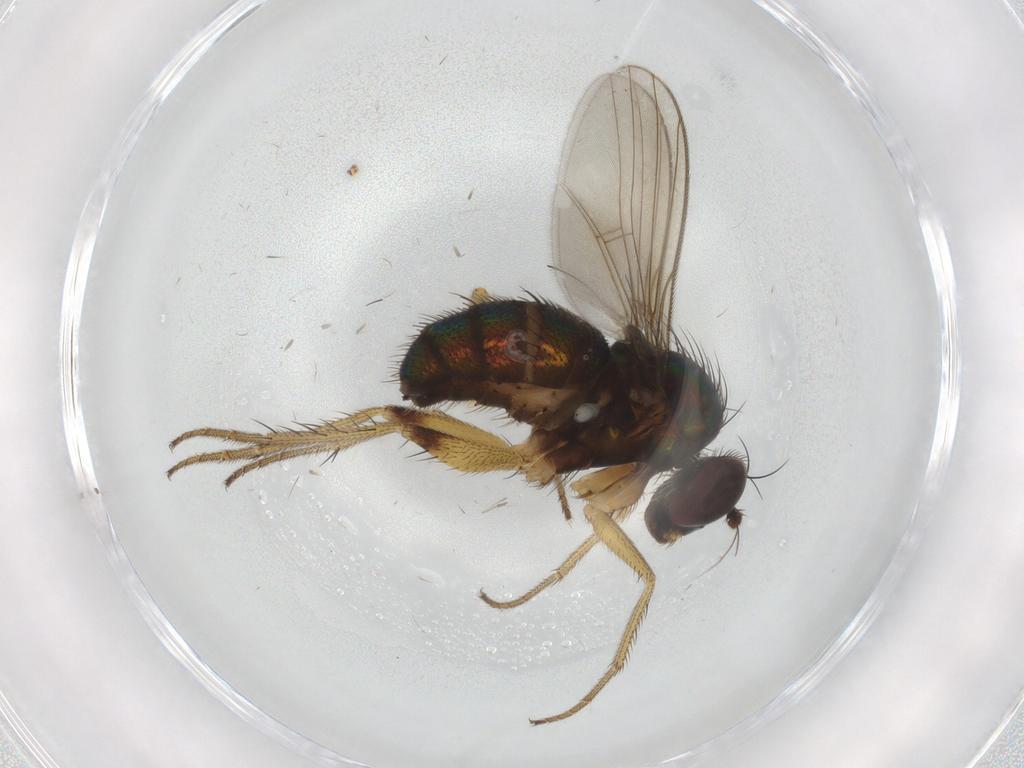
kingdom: Animalia
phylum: Arthropoda
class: Insecta
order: Diptera
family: Dolichopodidae
